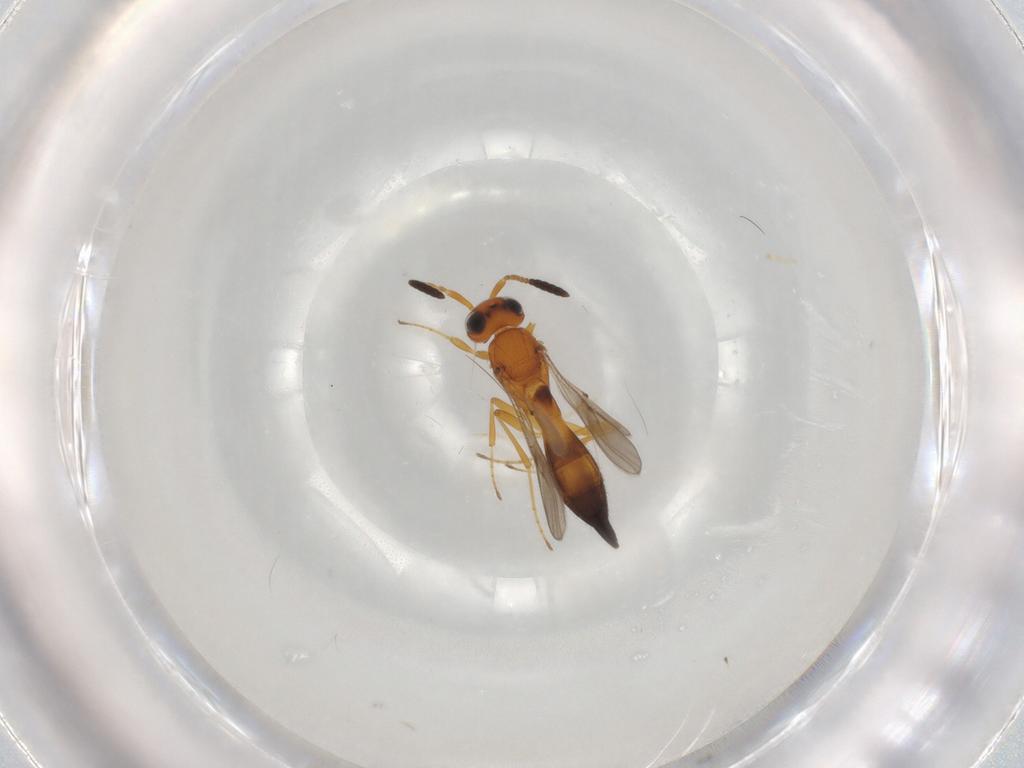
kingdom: Animalia
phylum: Arthropoda
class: Insecta
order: Hymenoptera
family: Scelionidae
